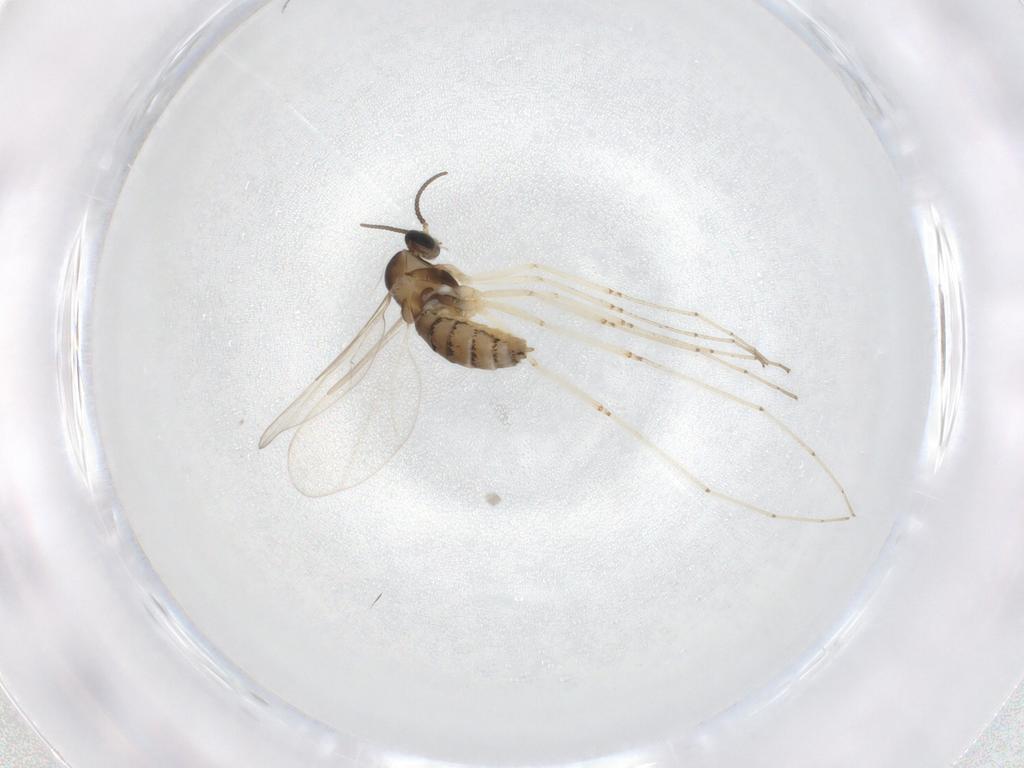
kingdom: Animalia
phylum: Arthropoda
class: Insecta
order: Diptera
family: Cecidomyiidae
